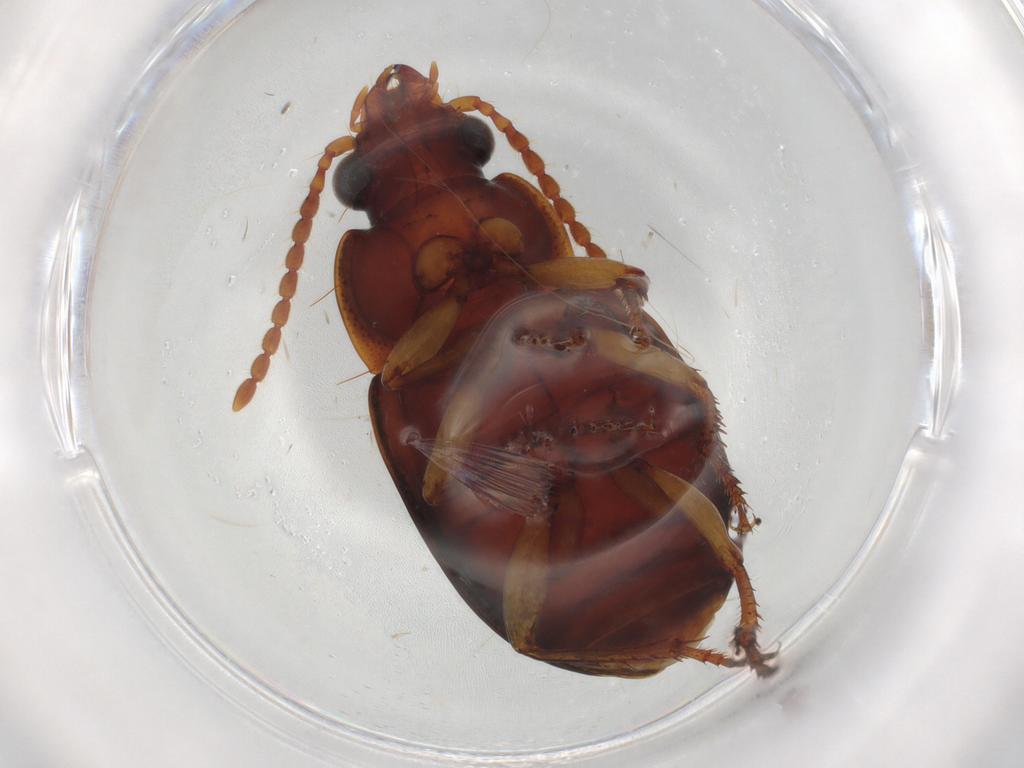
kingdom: Animalia
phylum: Arthropoda
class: Insecta
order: Coleoptera
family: Carabidae
